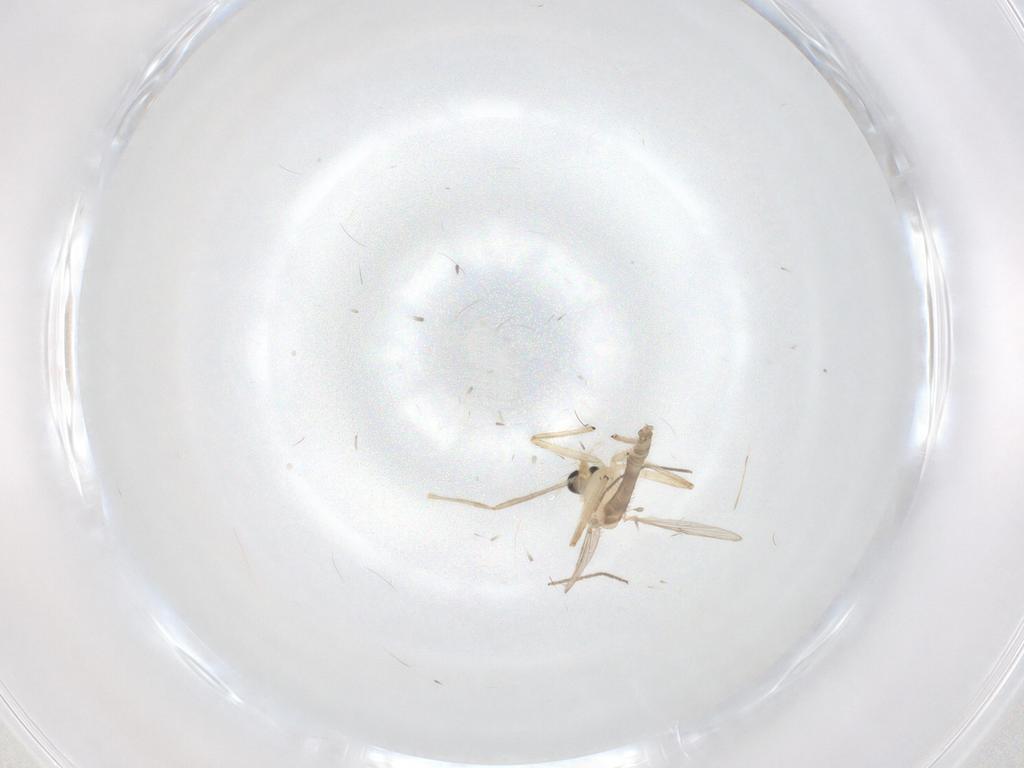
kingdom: Animalia
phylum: Arthropoda
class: Insecta
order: Diptera
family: Chironomidae
